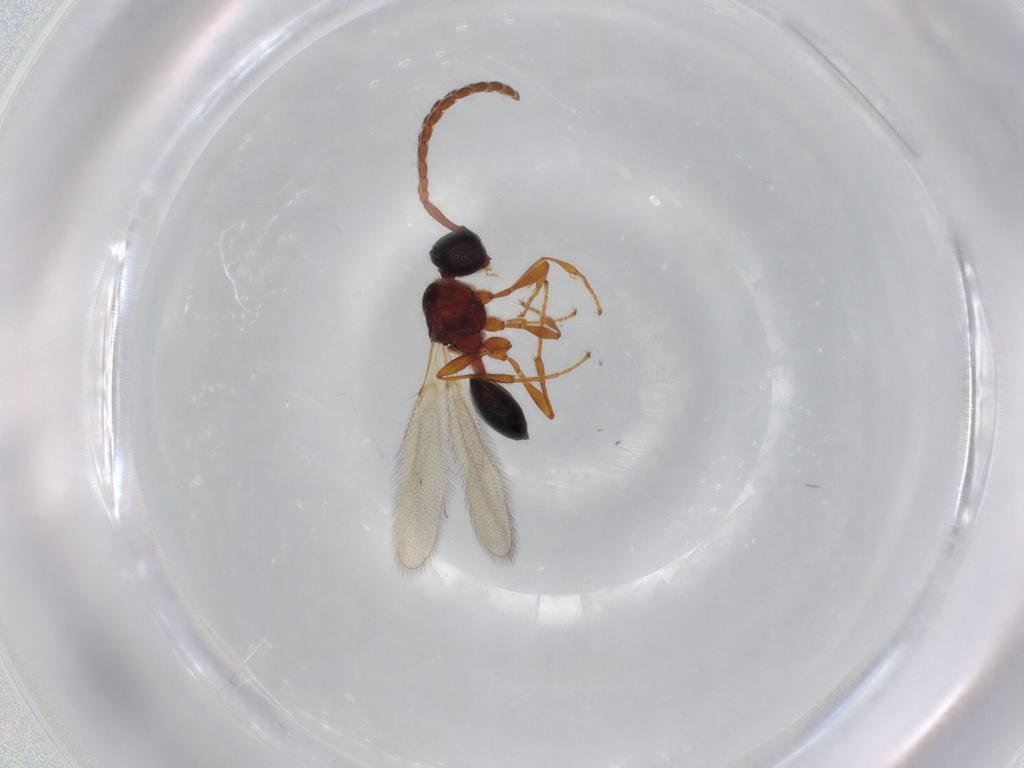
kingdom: Animalia
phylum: Arthropoda
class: Insecta
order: Hymenoptera
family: Diapriidae
